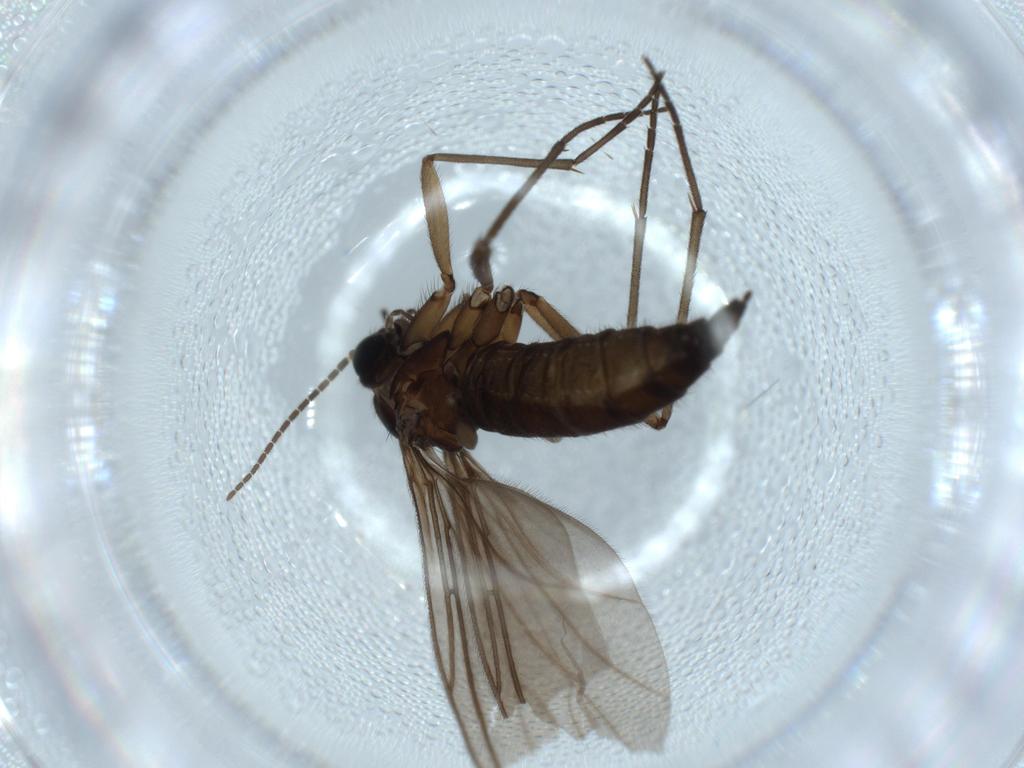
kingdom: Animalia
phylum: Arthropoda
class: Insecta
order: Diptera
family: Sciaridae
